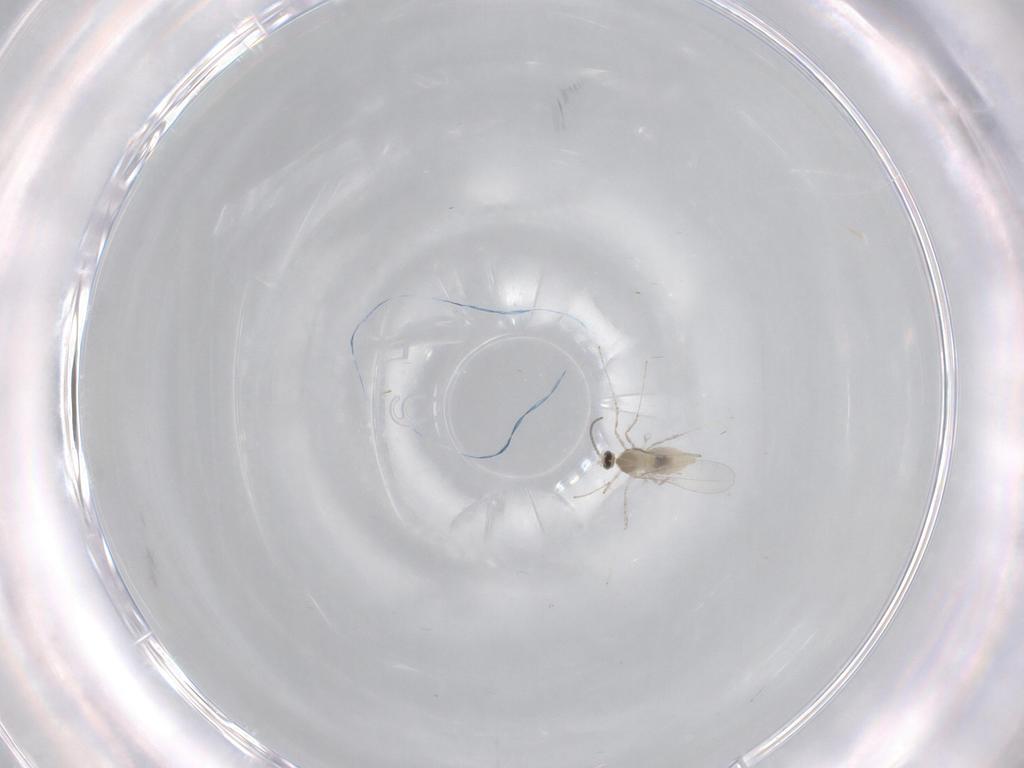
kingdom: Animalia
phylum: Arthropoda
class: Insecta
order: Diptera
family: Cecidomyiidae
